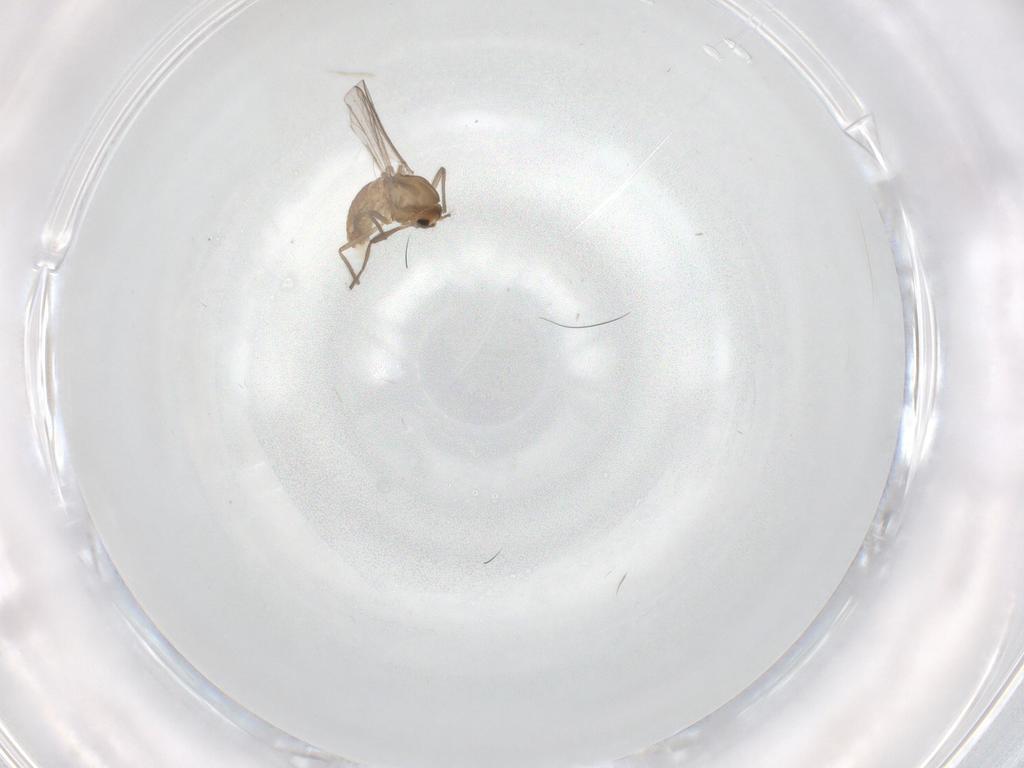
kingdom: Animalia
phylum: Arthropoda
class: Insecta
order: Diptera
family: Chironomidae
